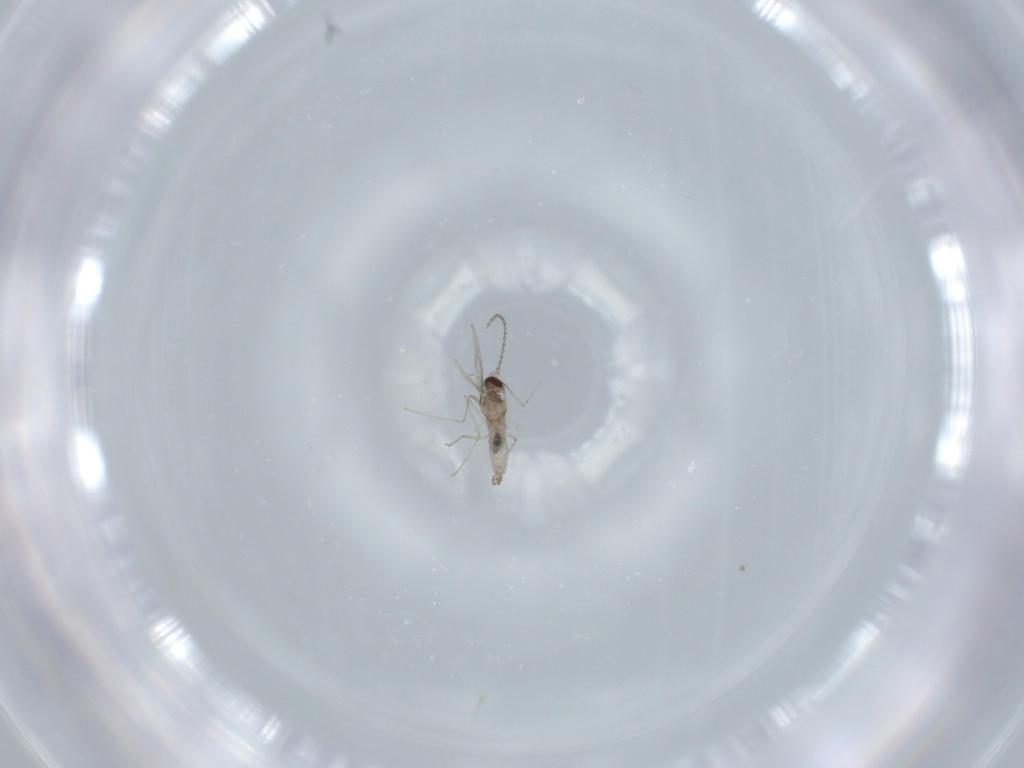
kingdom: Animalia
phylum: Arthropoda
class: Insecta
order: Diptera
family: Cecidomyiidae
